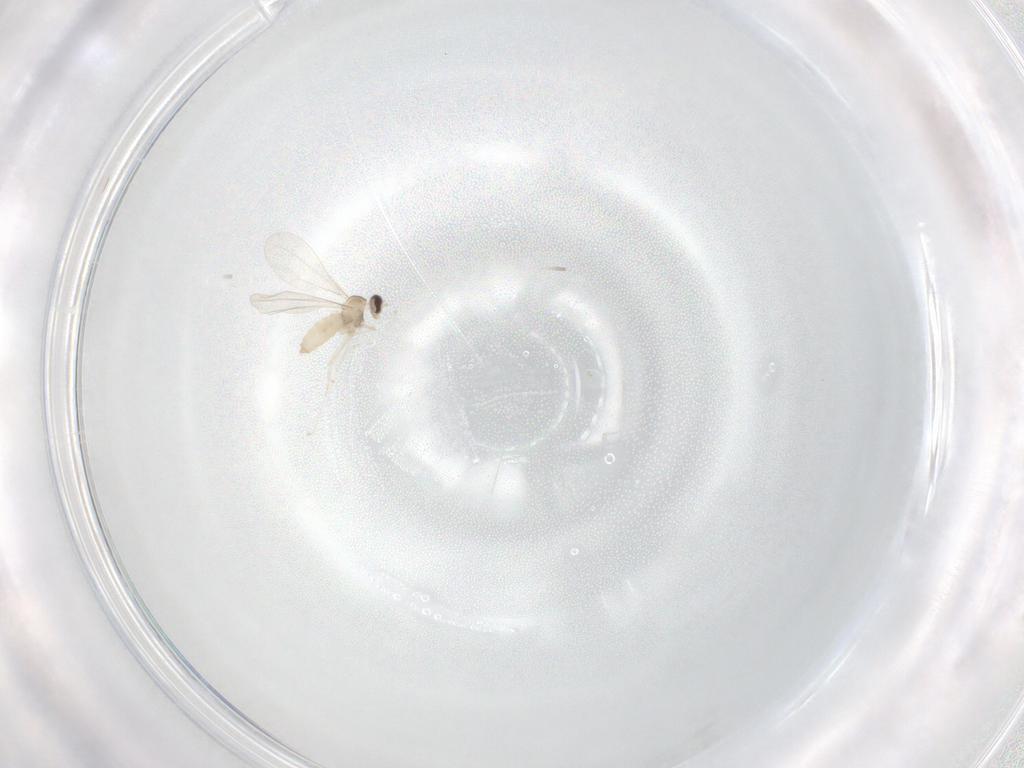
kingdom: Animalia
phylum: Arthropoda
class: Insecta
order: Diptera
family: Cecidomyiidae
